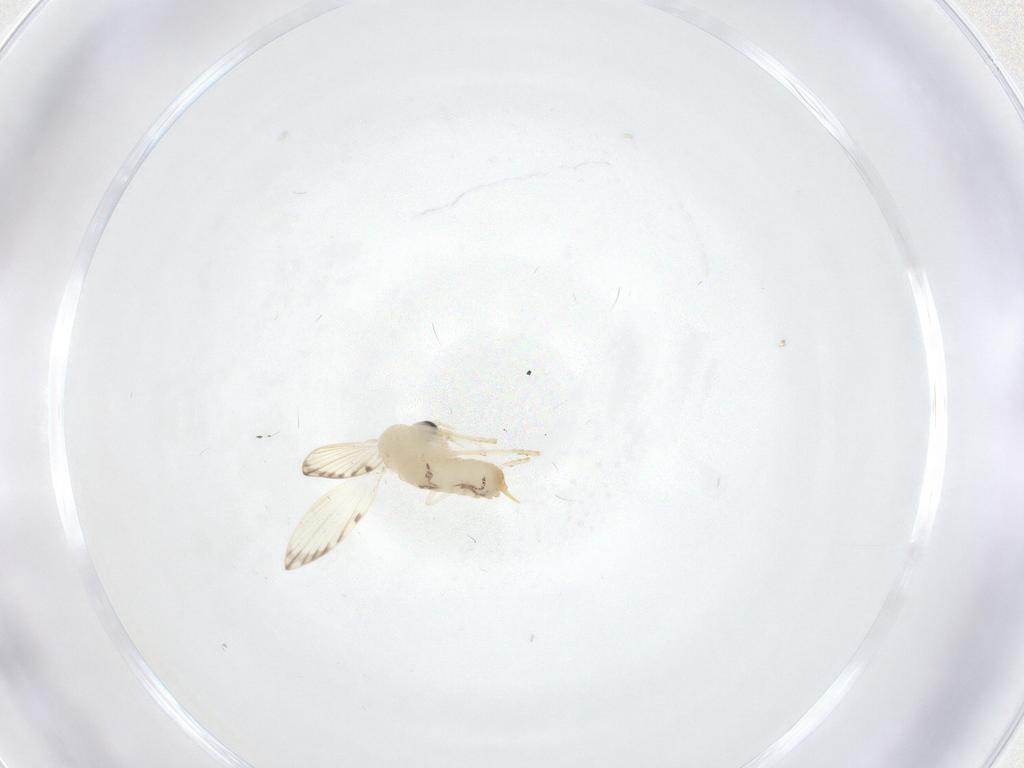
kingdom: Animalia
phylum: Arthropoda
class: Insecta
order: Diptera
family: Psychodidae
